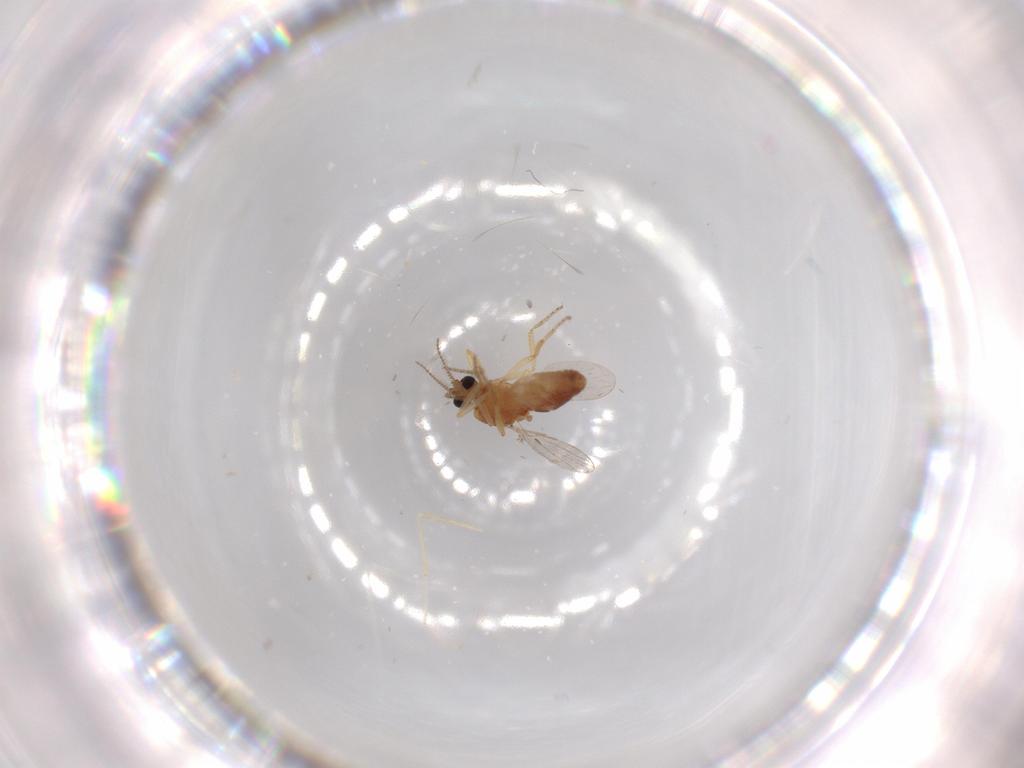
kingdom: Animalia
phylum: Arthropoda
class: Insecta
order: Diptera
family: Ceratopogonidae
